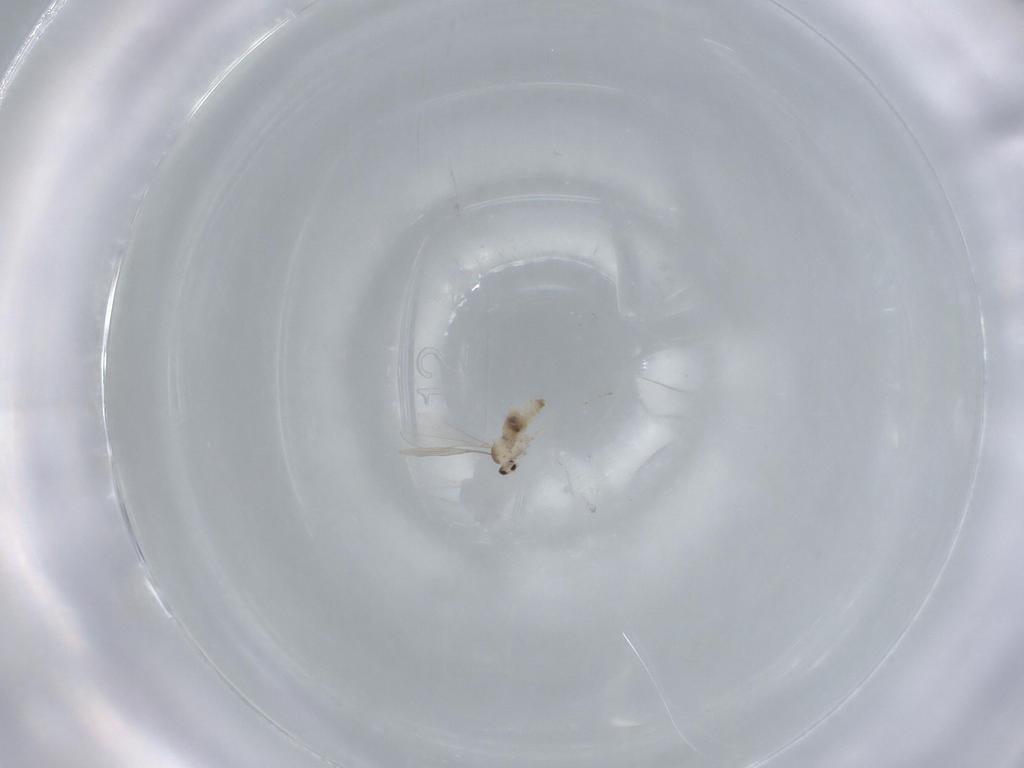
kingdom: Animalia
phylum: Arthropoda
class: Insecta
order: Diptera
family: Cecidomyiidae
